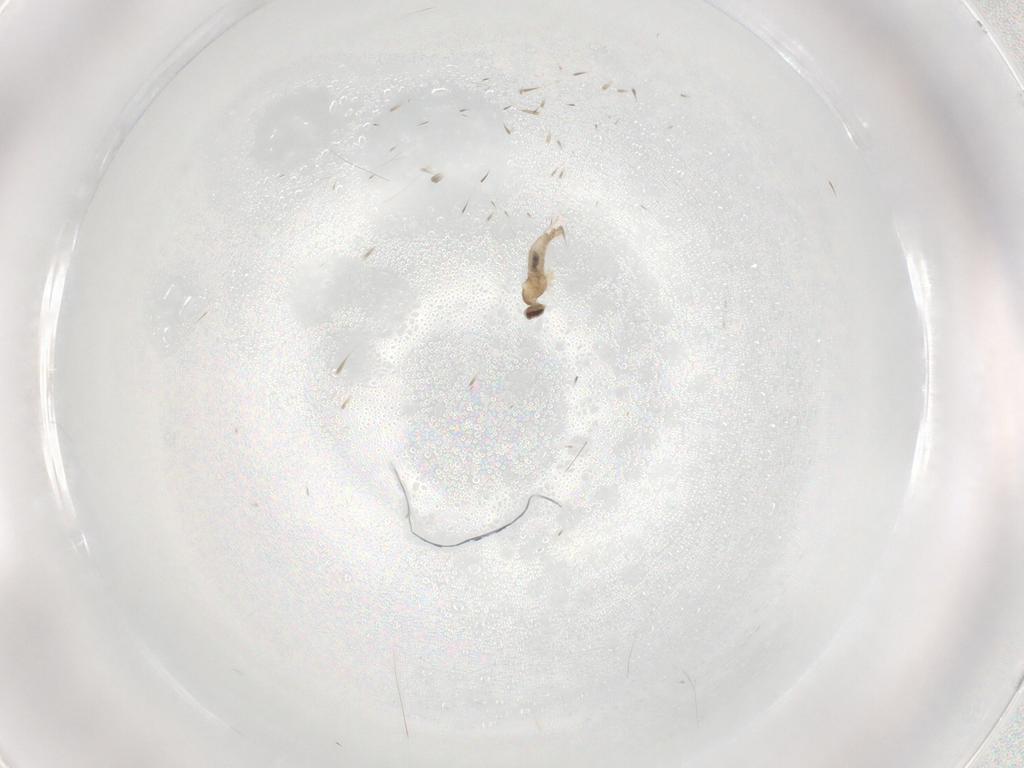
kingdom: Animalia
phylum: Arthropoda
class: Insecta
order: Diptera
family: Cecidomyiidae
